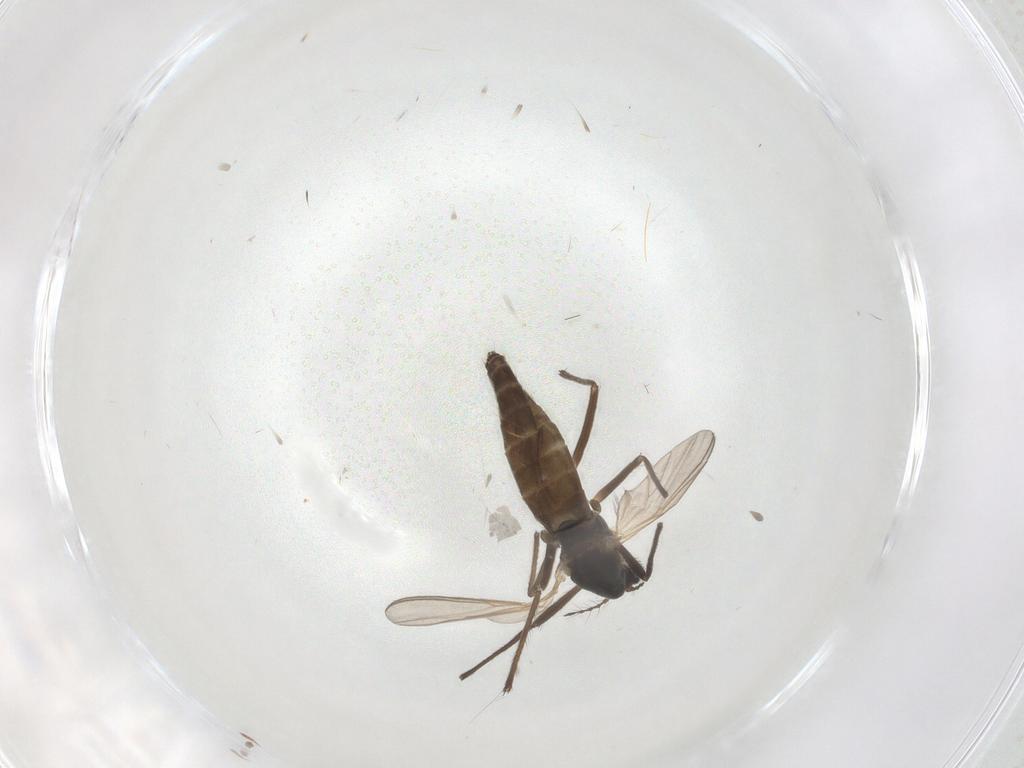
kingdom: Animalia
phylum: Arthropoda
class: Insecta
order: Diptera
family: Chironomidae
